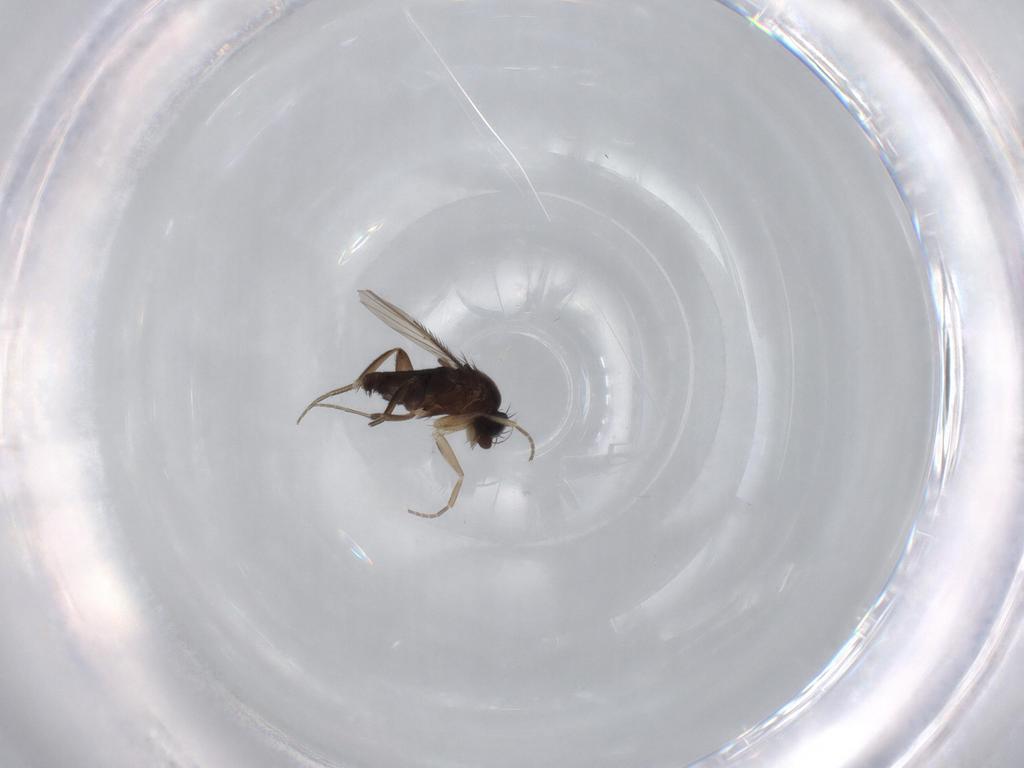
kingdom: Animalia
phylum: Arthropoda
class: Insecta
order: Diptera
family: Phoridae
